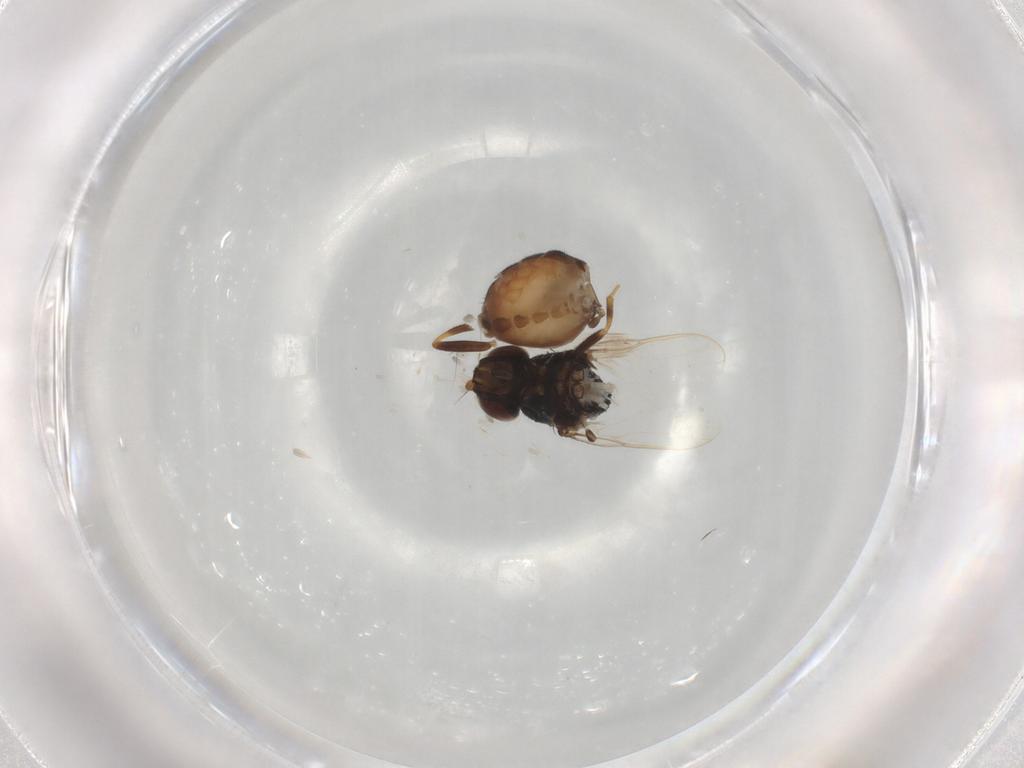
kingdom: Animalia
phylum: Arthropoda
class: Insecta
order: Diptera
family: Chloropidae
